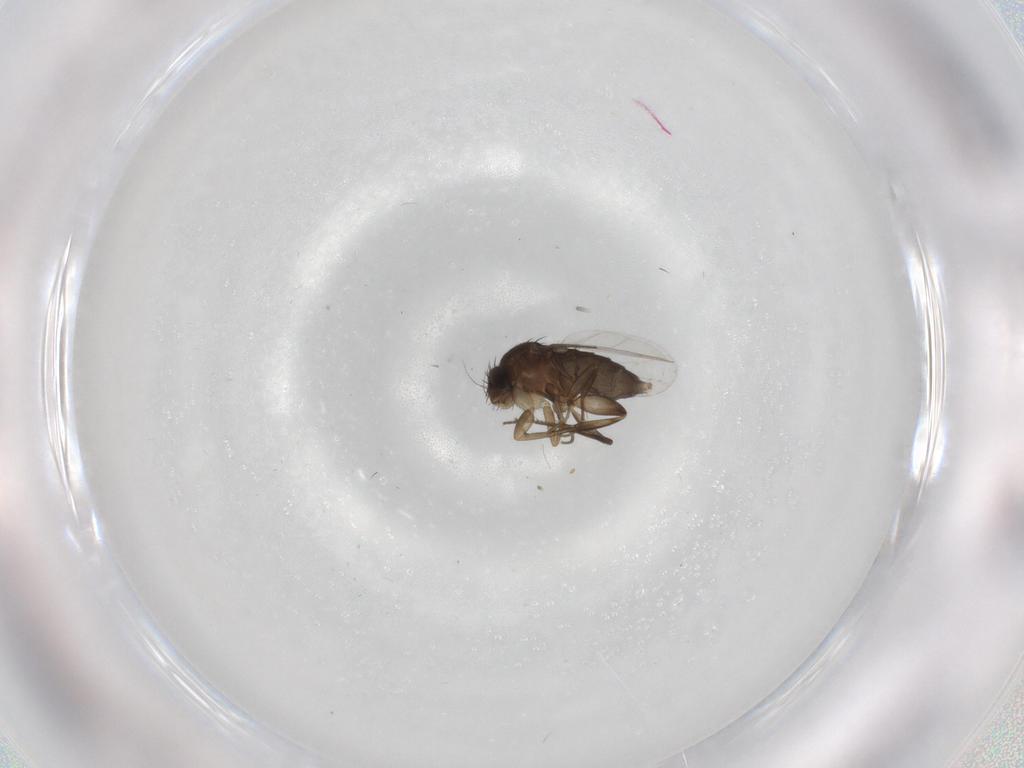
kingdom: Animalia
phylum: Arthropoda
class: Insecta
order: Diptera
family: Phoridae
